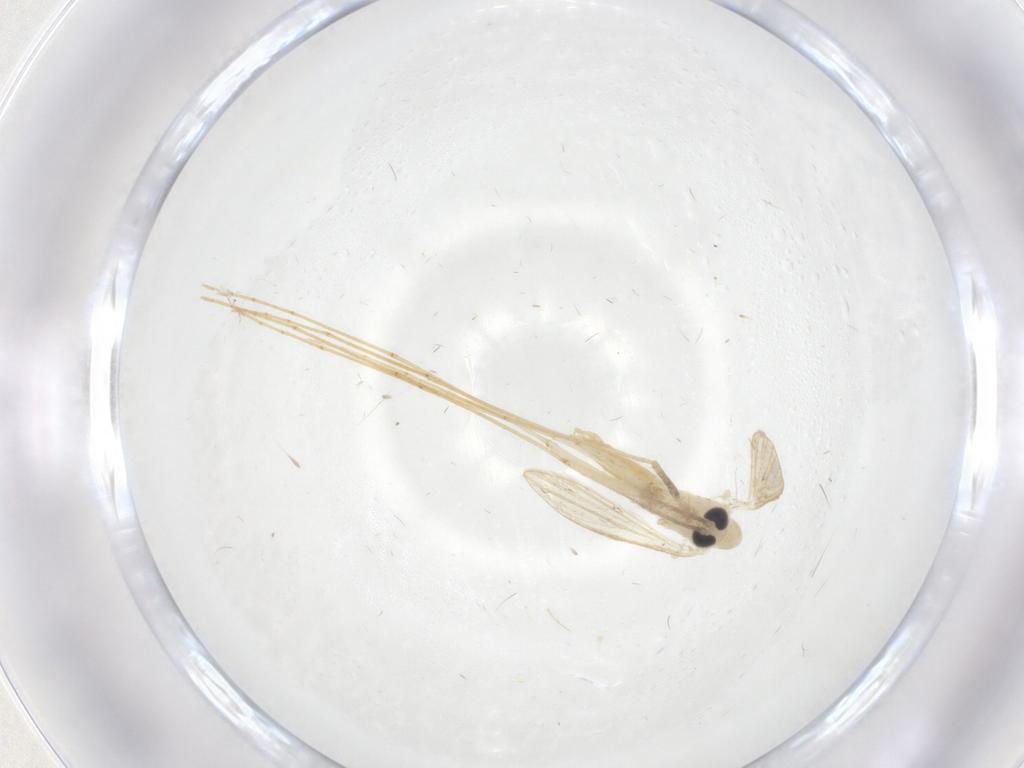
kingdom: Animalia
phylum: Arthropoda
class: Insecta
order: Diptera
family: Psychodidae
